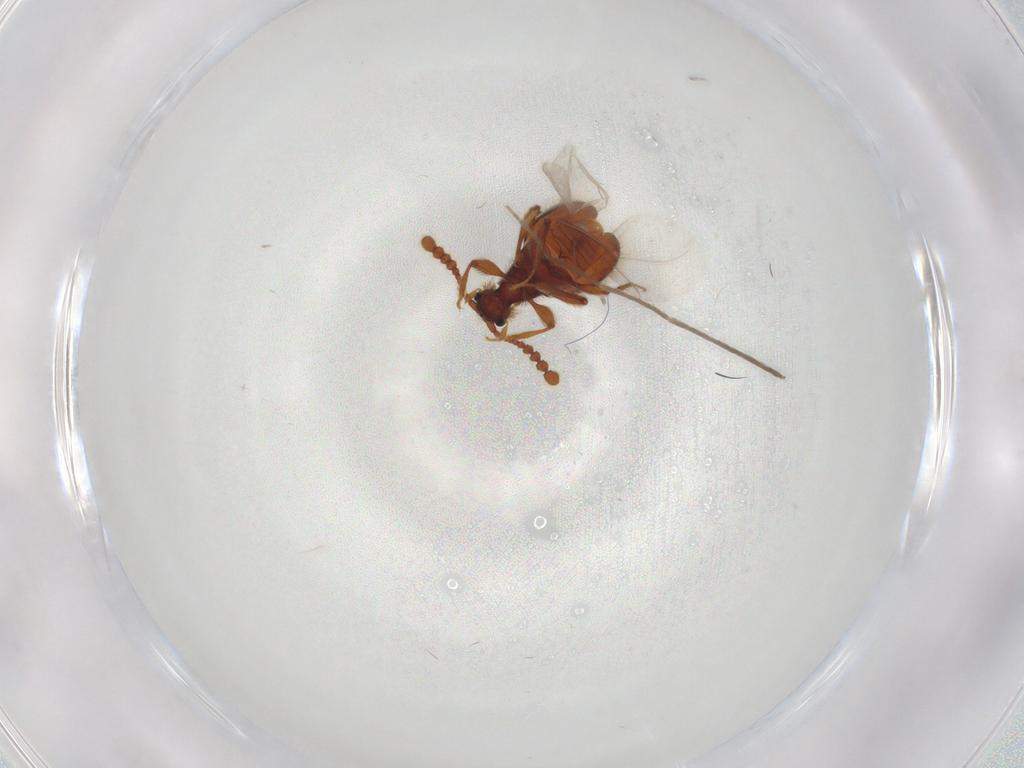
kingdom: Animalia
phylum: Arthropoda
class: Insecta
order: Coleoptera
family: Staphylinidae
